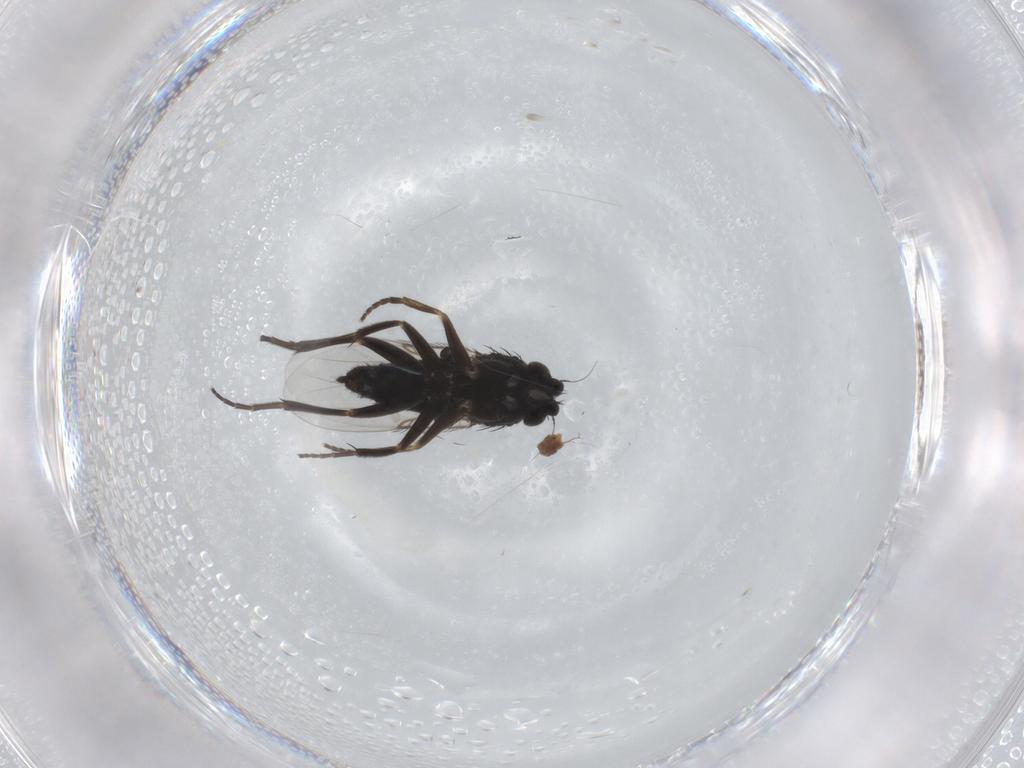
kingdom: Animalia
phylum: Arthropoda
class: Insecta
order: Diptera
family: Phoridae
